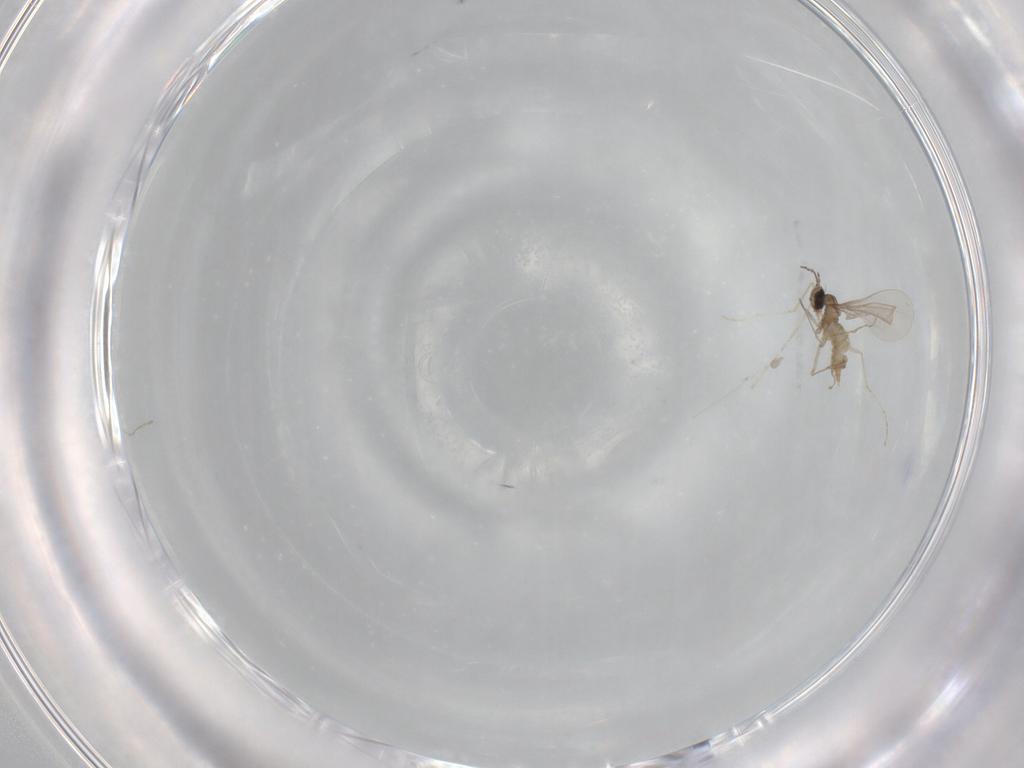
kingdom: Animalia
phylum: Arthropoda
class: Insecta
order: Diptera
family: Cecidomyiidae
